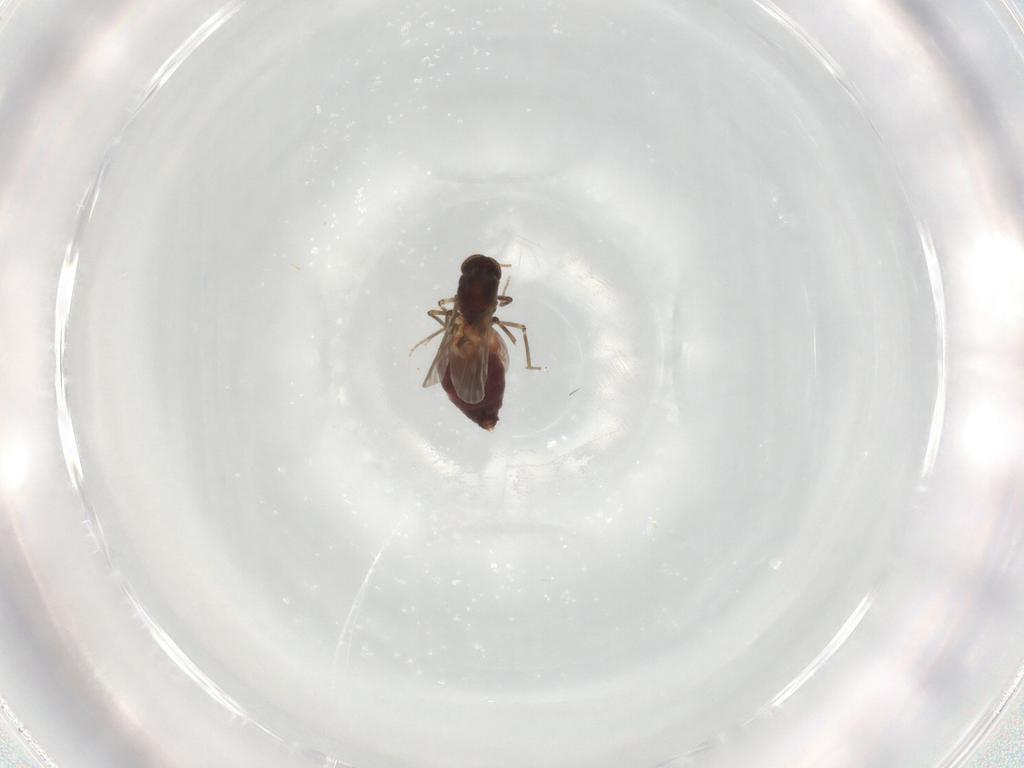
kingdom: Animalia
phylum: Arthropoda
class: Insecta
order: Diptera
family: Ceratopogonidae
